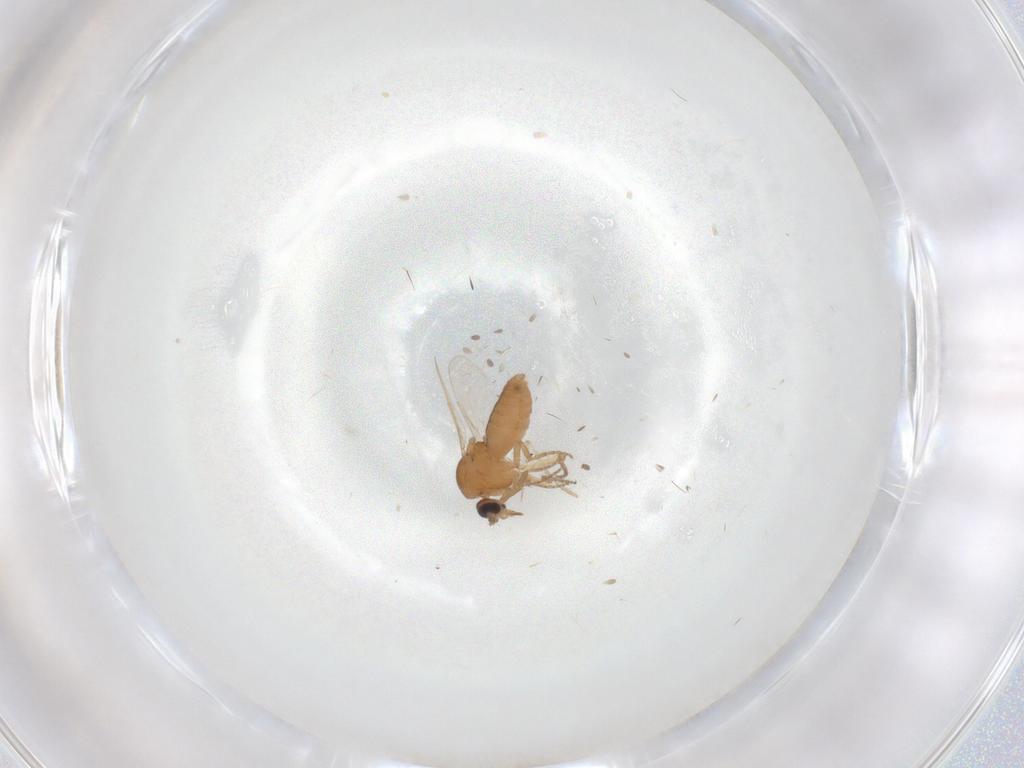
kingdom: Animalia
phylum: Arthropoda
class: Insecta
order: Diptera
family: Ceratopogonidae
